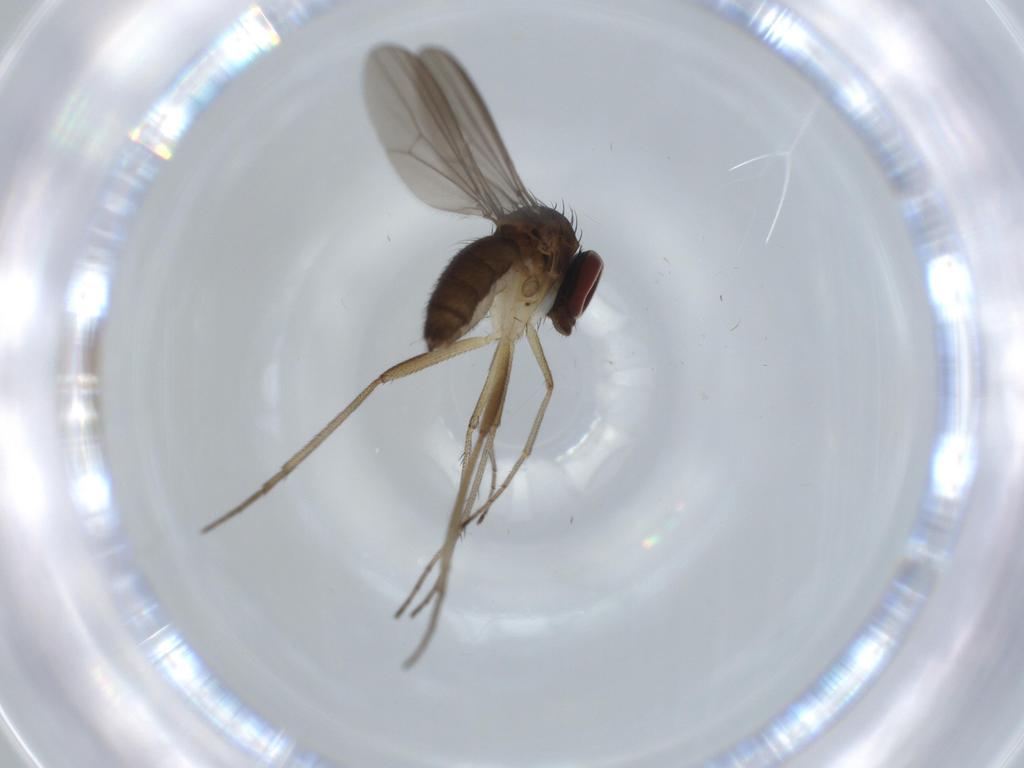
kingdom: Animalia
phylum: Arthropoda
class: Insecta
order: Diptera
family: Dolichopodidae
